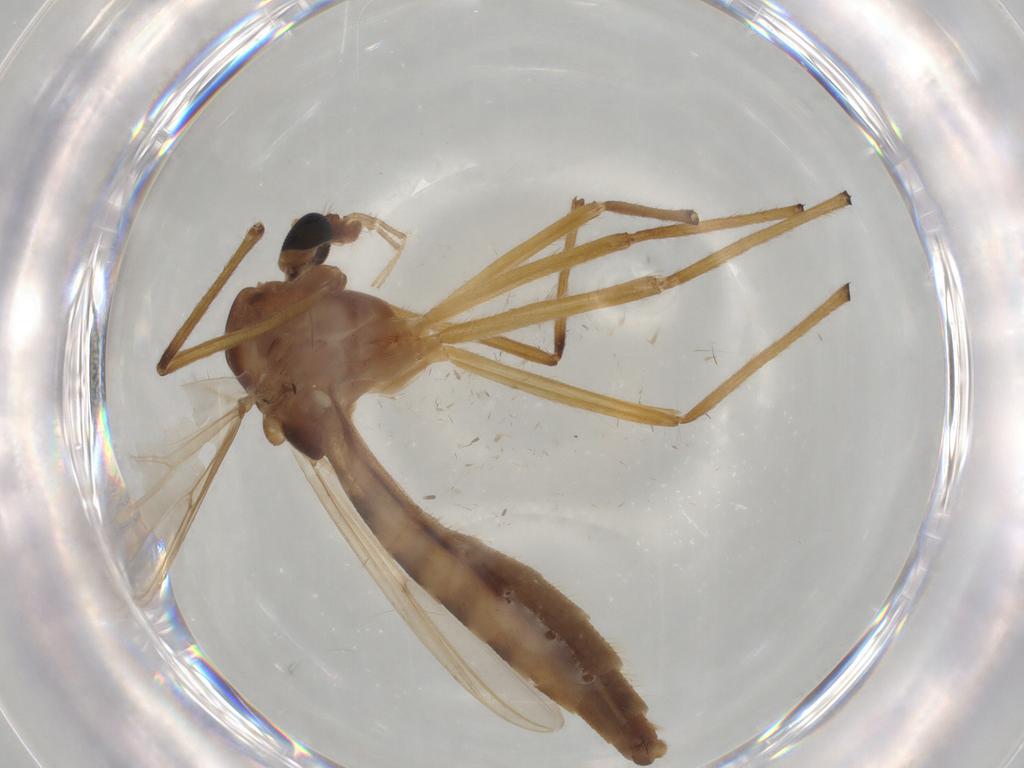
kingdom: Animalia
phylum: Arthropoda
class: Insecta
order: Diptera
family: Chironomidae
